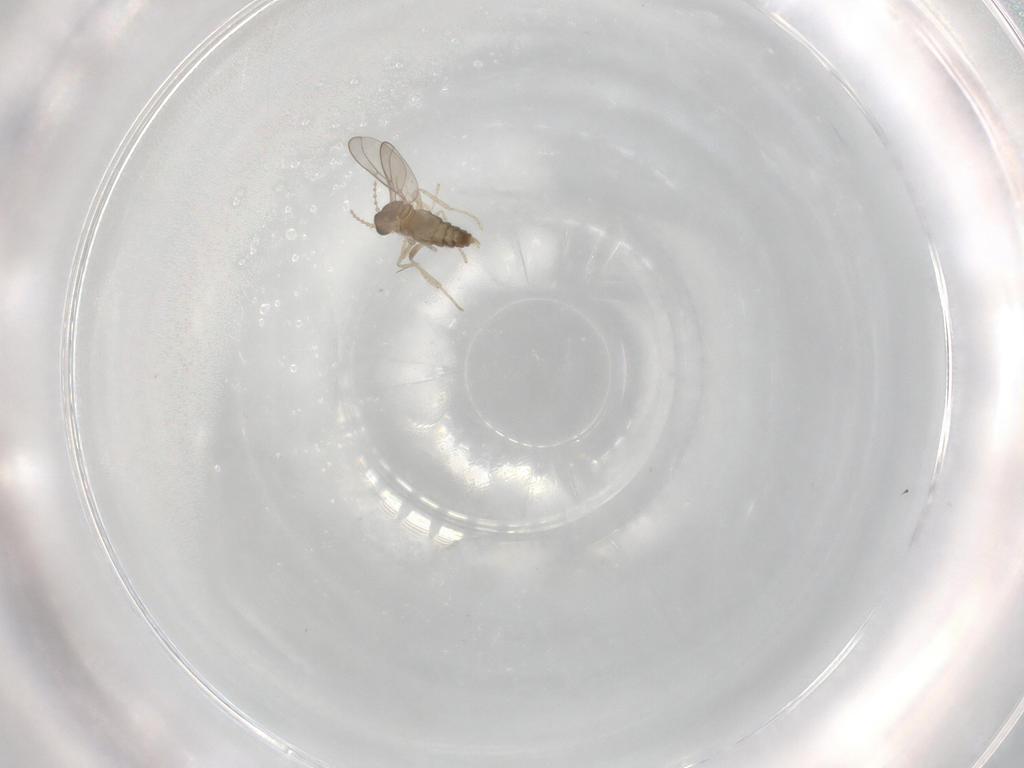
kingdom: Animalia
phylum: Arthropoda
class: Insecta
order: Diptera
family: Cecidomyiidae
